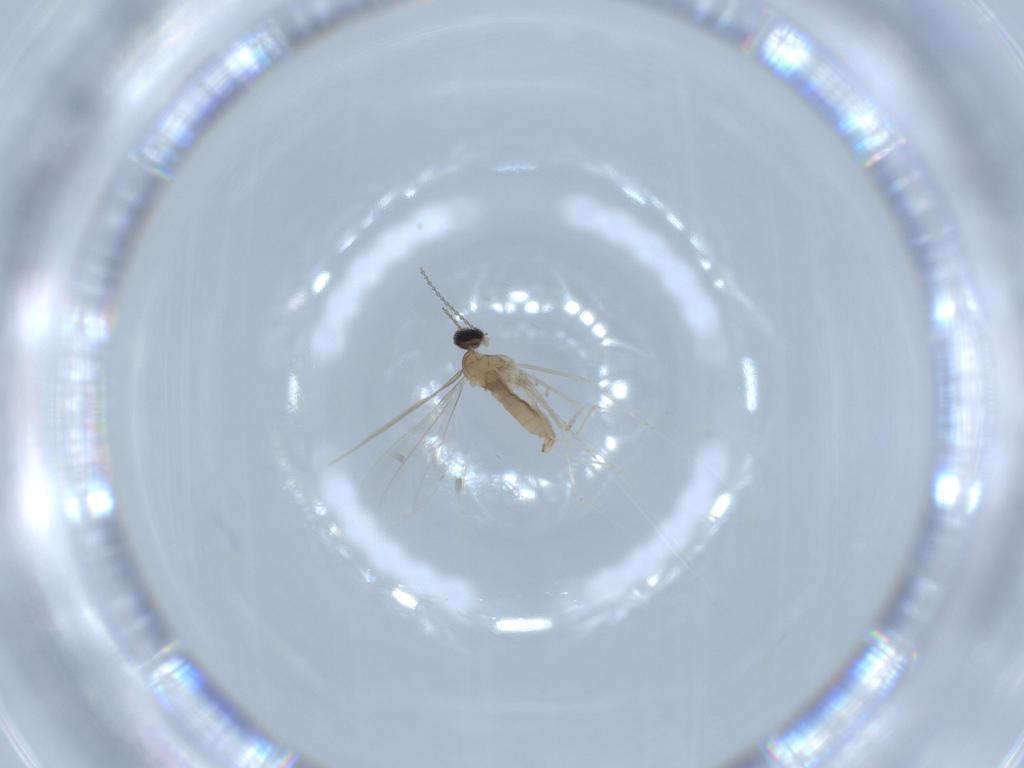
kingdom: Animalia
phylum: Arthropoda
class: Insecta
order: Diptera
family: Cecidomyiidae
